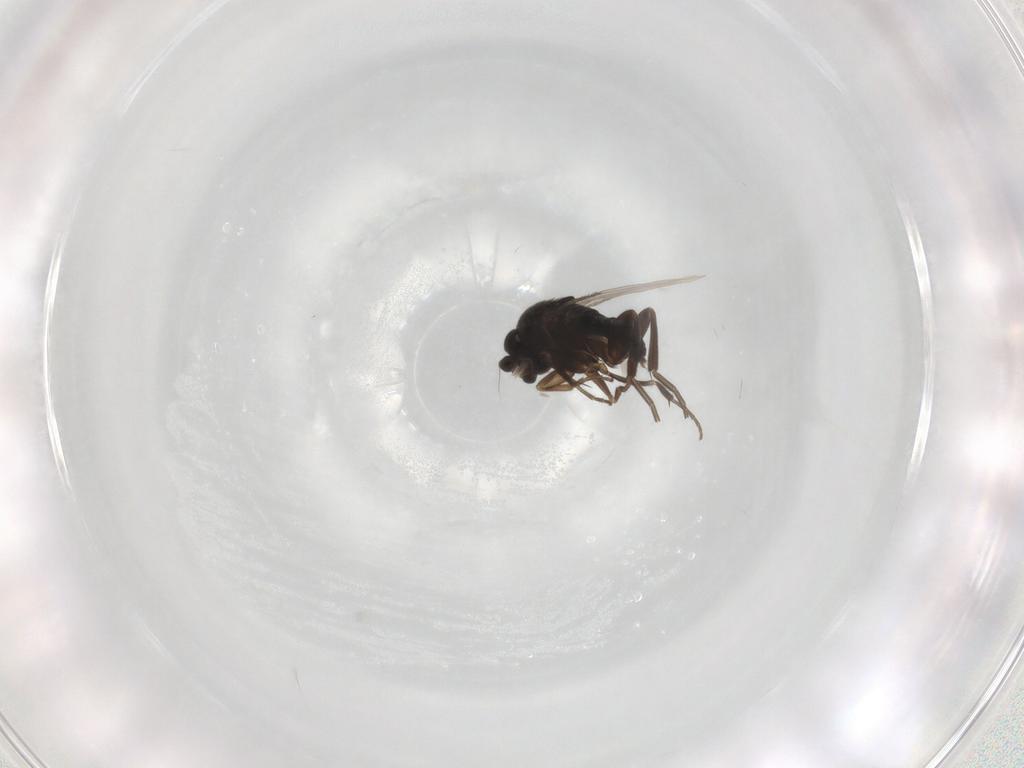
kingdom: Animalia
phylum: Arthropoda
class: Insecta
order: Diptera
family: Phoridae
